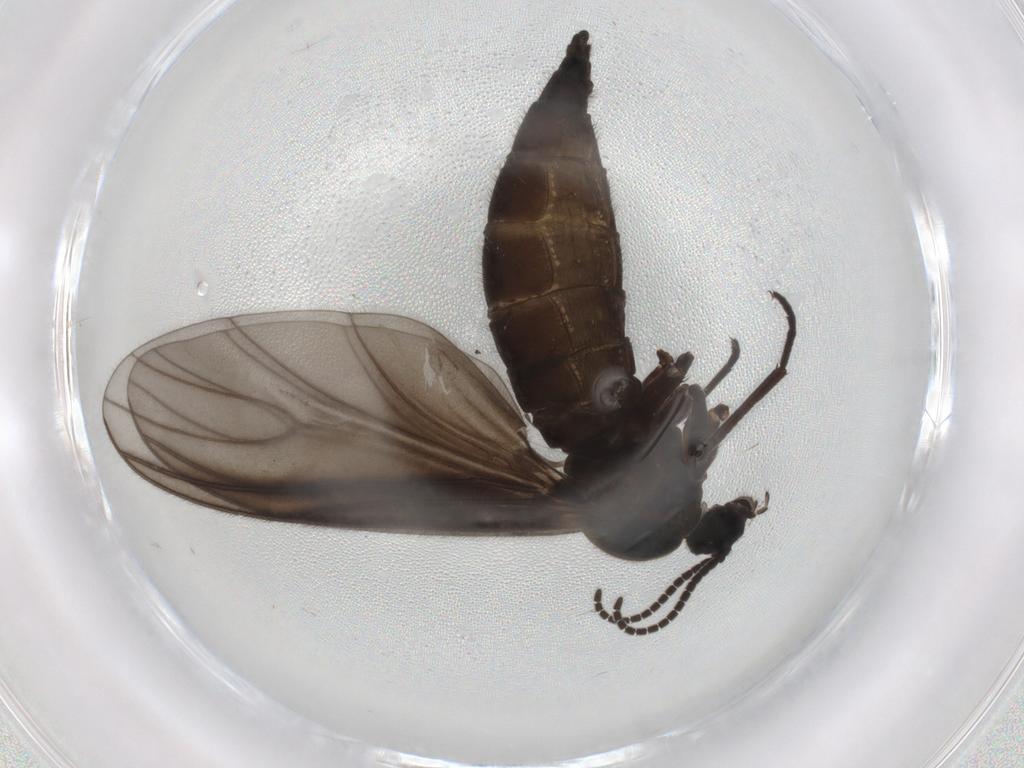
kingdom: Animalia
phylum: Arthropoda
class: Insecta
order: Diptera
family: Sciaridae
